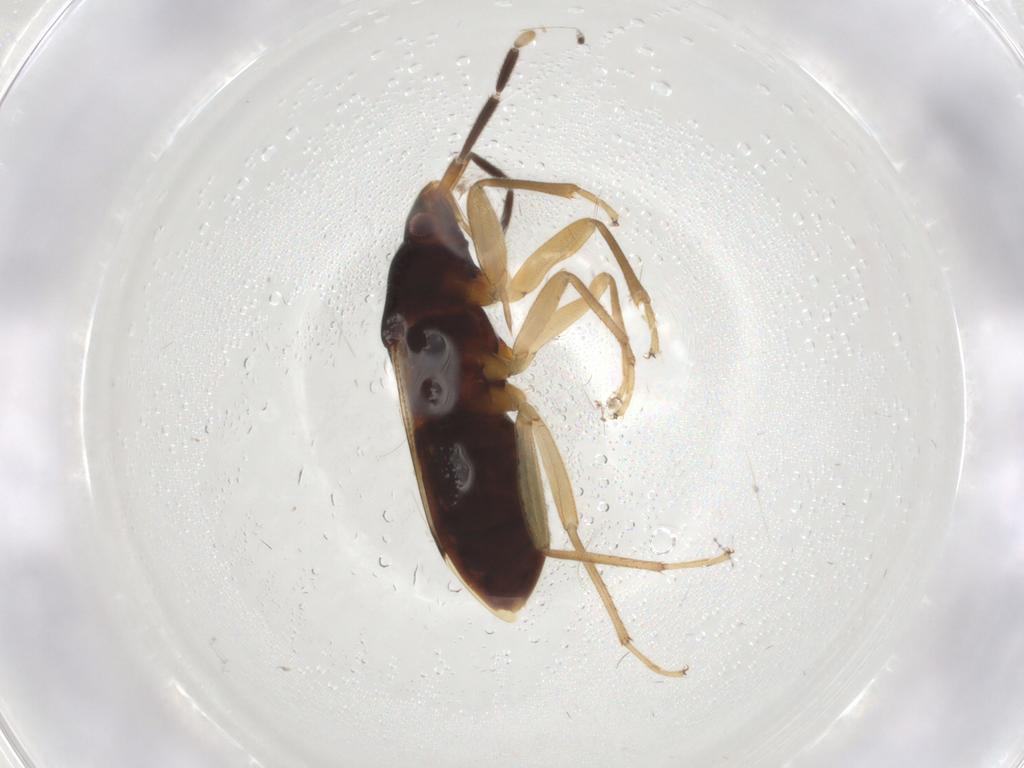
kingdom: Animalia
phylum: Arthropoda
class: Insecta
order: Hemiptera
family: Rhyparochromidae
